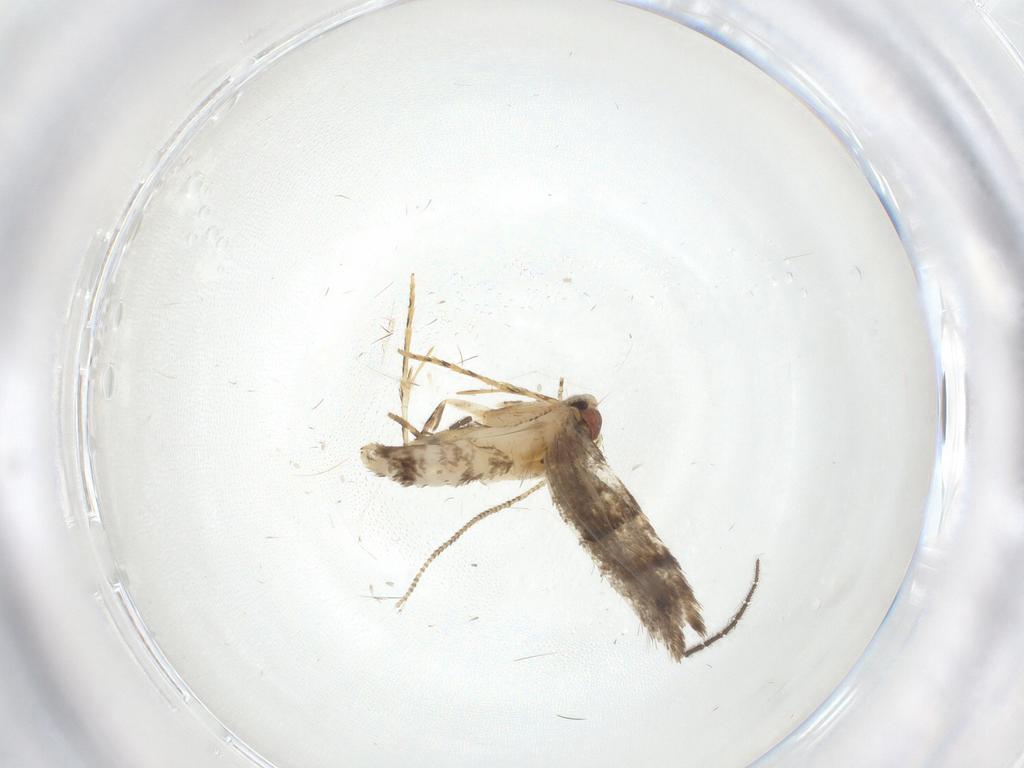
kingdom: Animalia
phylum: Arthropoda
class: Insecta
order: Lepidoptera
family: Tineidae
